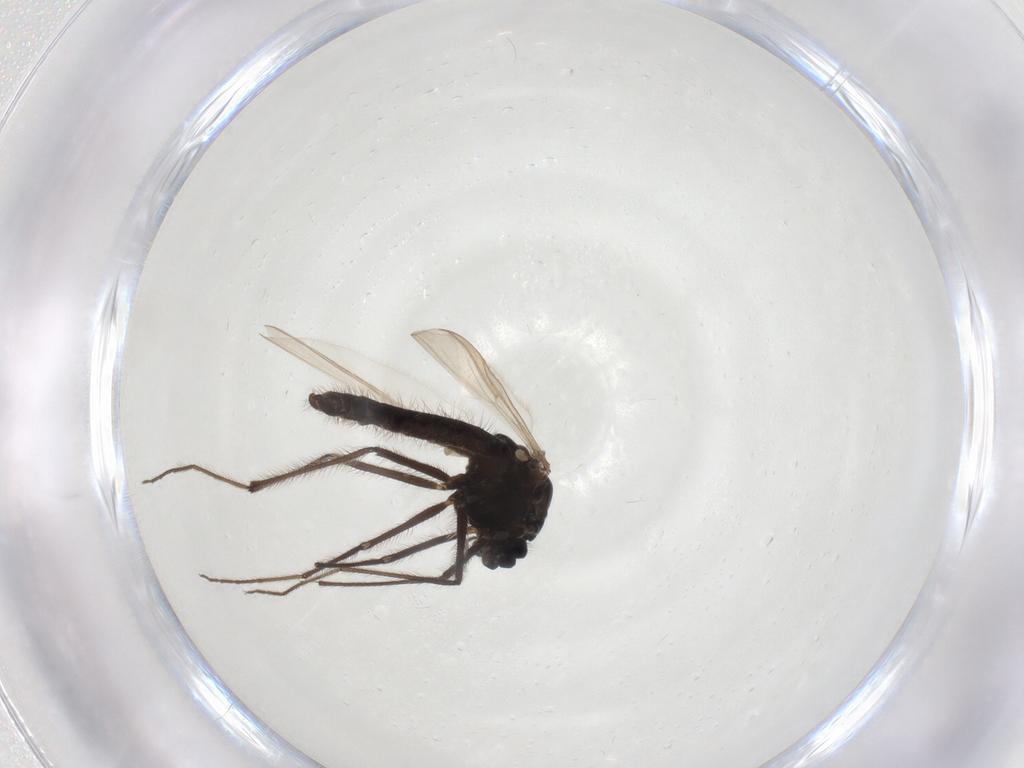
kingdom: Animalia
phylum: Arthropoda
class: Insecta
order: Diptera
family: Chironomidae
